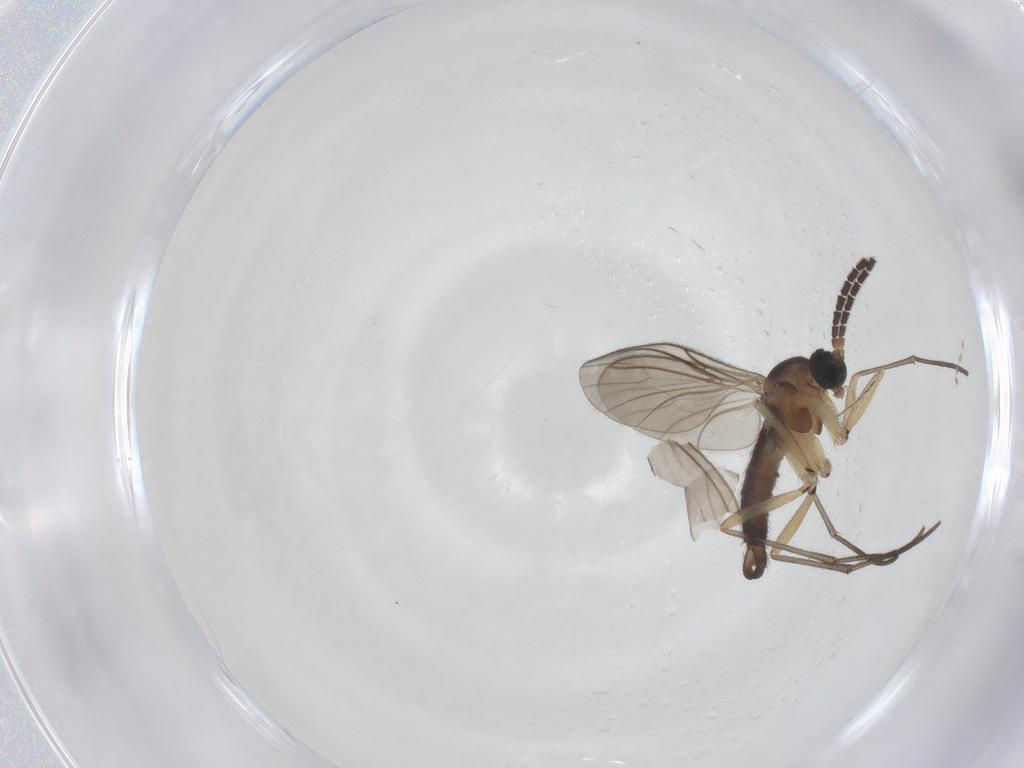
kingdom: Animalia
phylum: Arthropoda
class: Insecta
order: Diptera
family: Sciaridae
